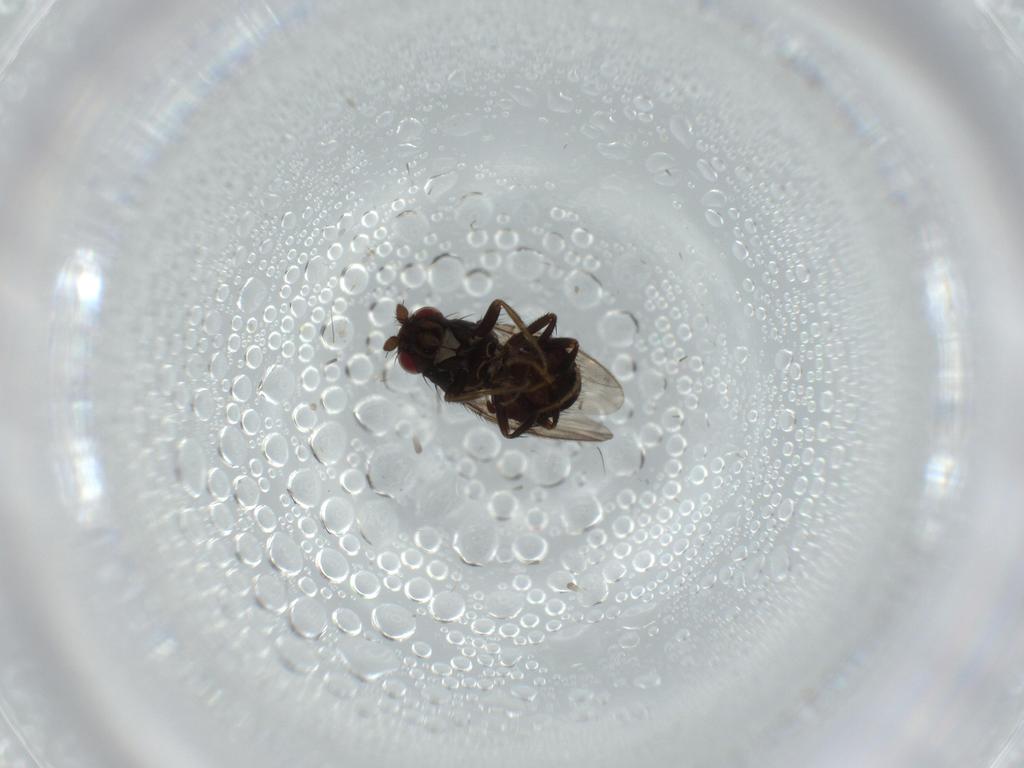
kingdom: Animalia
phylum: Arthropoda
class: Insecta
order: Diptera
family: Sphaeroceridae
